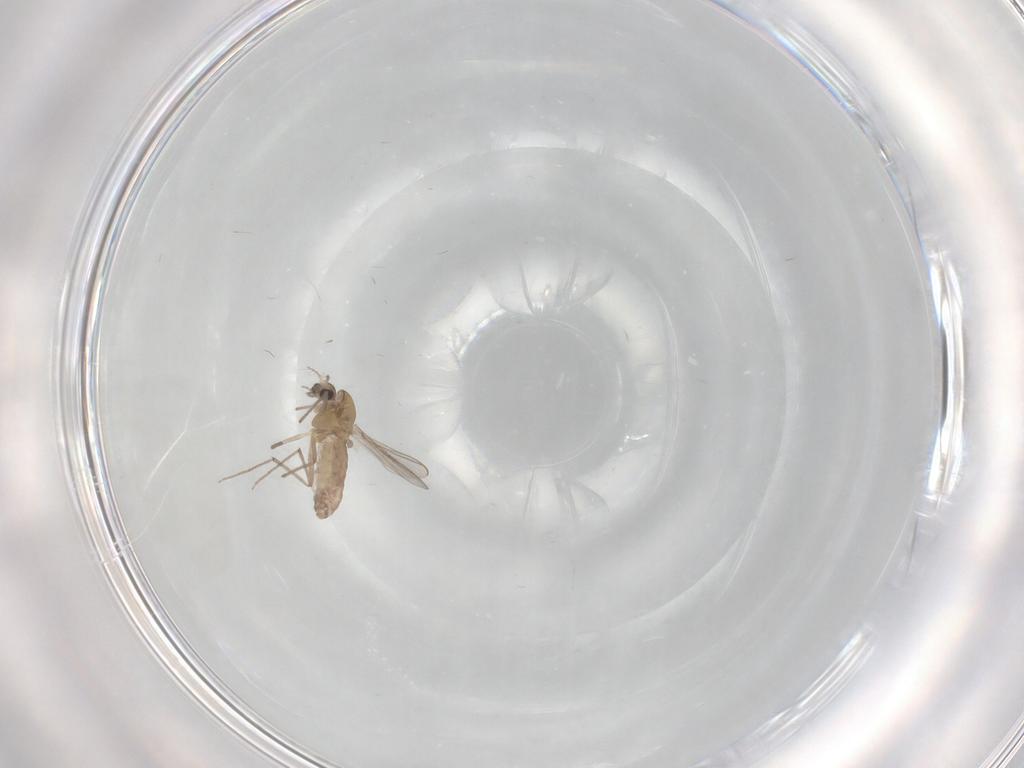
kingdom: Animalia
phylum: Arthropoda
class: Insecta
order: Diptera
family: Chironomidae
